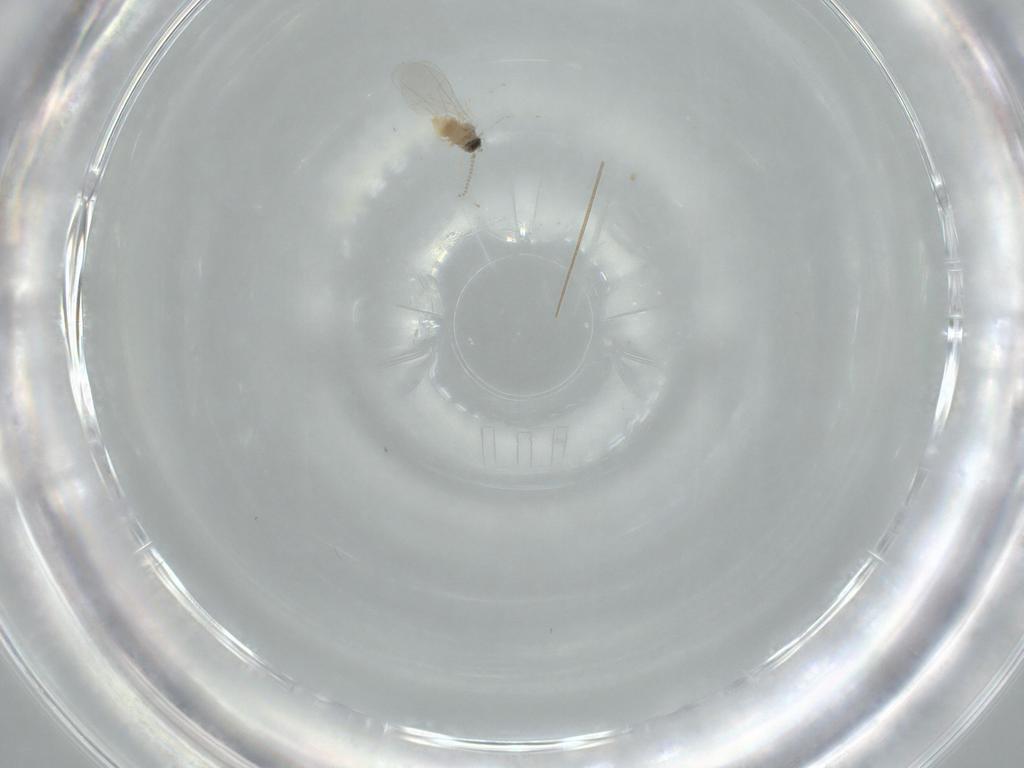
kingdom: Animalia
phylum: Arthropoda
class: Insecta
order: Diptera
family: Cecidomyiidae
